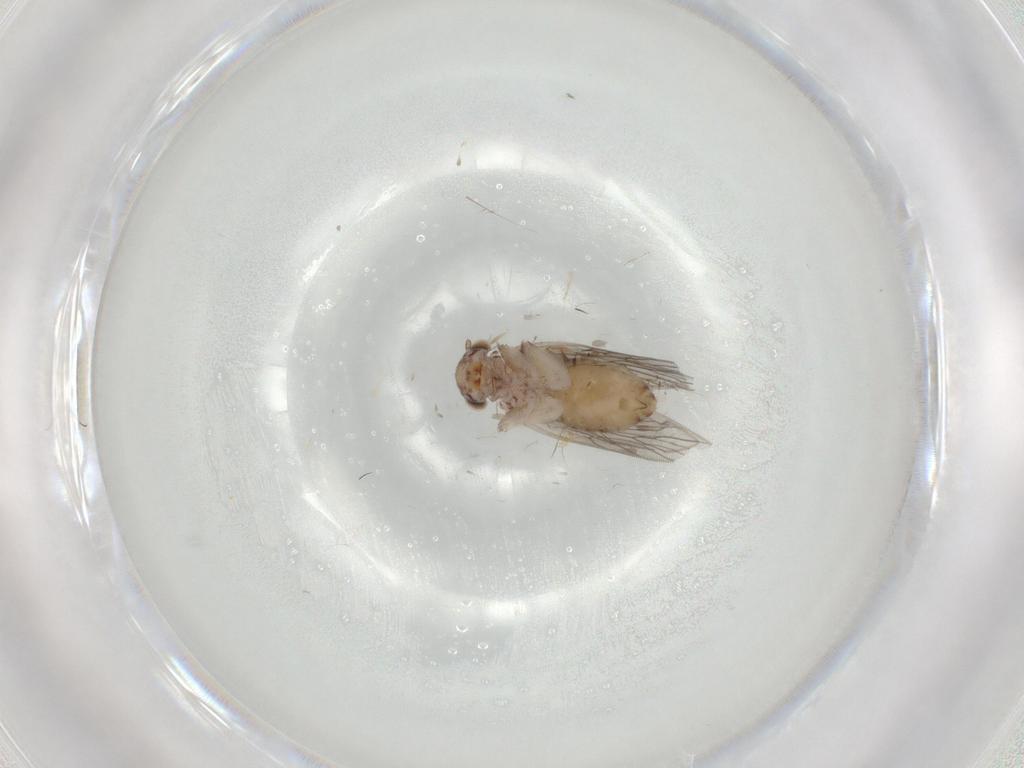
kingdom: Animalia
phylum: Arthropoda
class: Insecta
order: Psocodea
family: Lepidopsocidae
